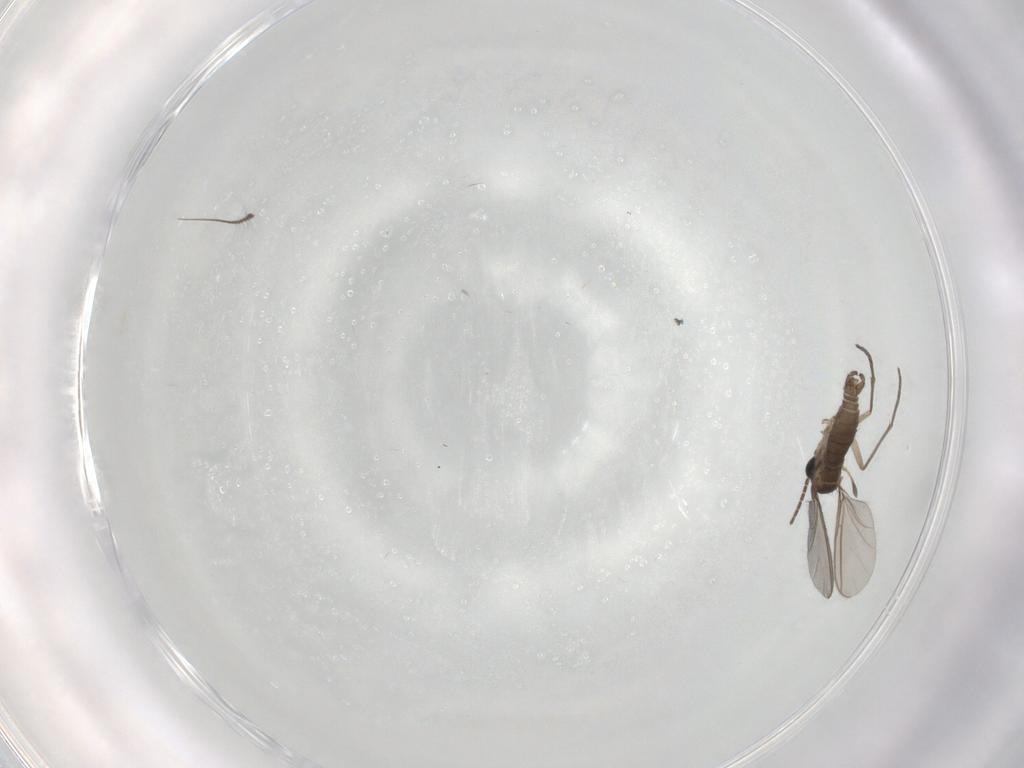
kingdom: Animalia
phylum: Arthropoda
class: Insecta
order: Diptera
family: Sciaridae
